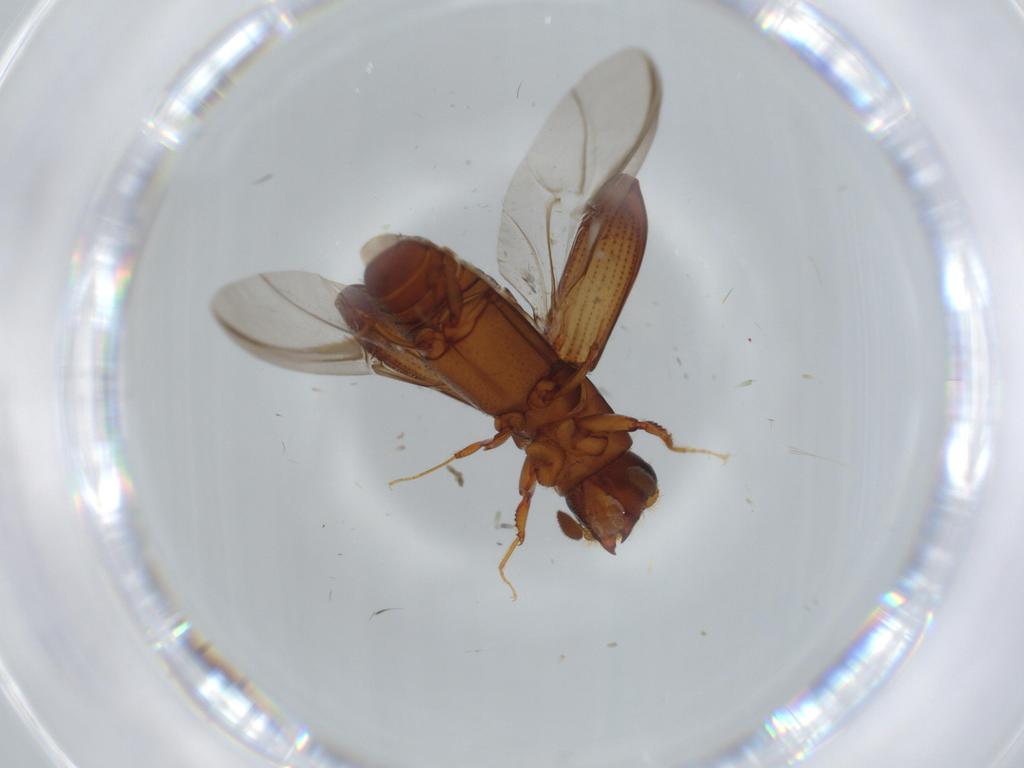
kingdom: Animalia
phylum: Arthropoda
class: Insecta
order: Coleoptera
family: Curculionidae
